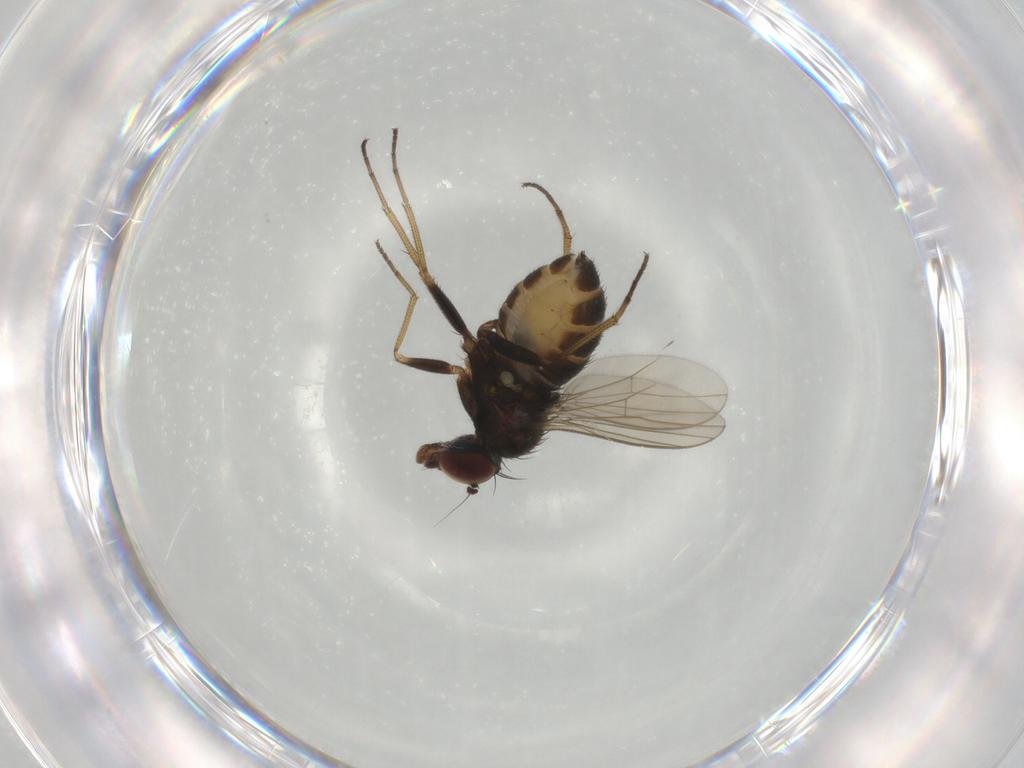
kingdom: Animalia
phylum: Arthropoda
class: Insecta
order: Diptera
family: Dolichopodidae
